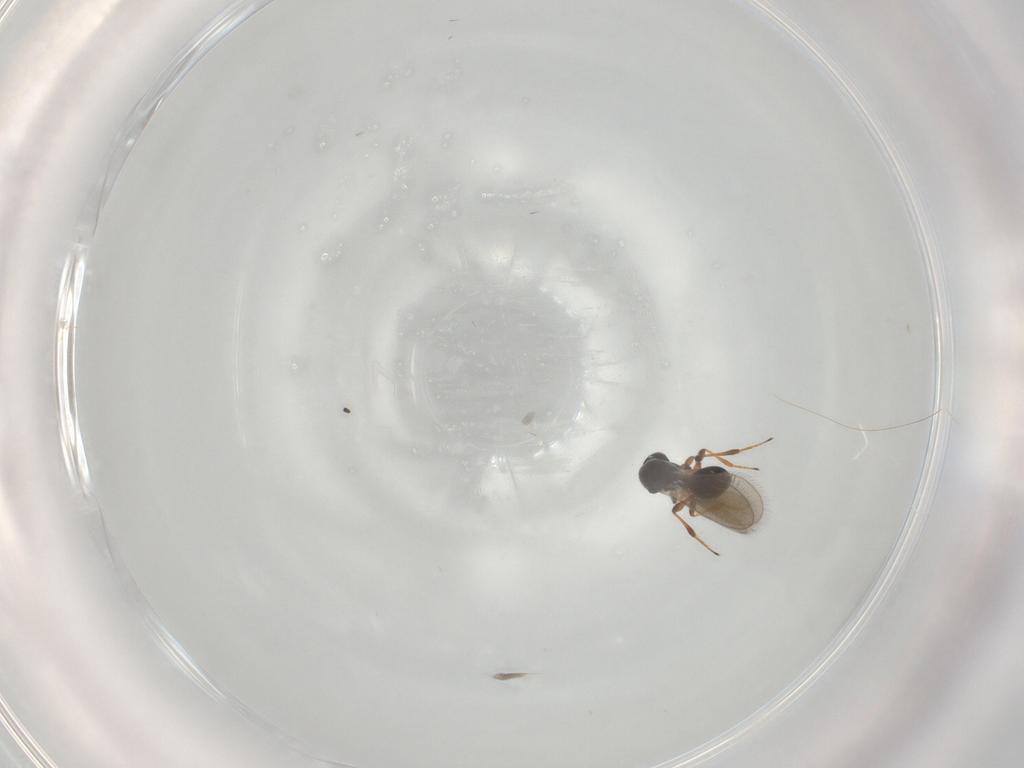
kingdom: Animalia
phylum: Arthropoda
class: Insecta
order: Hymenoptera
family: Platygastridae
